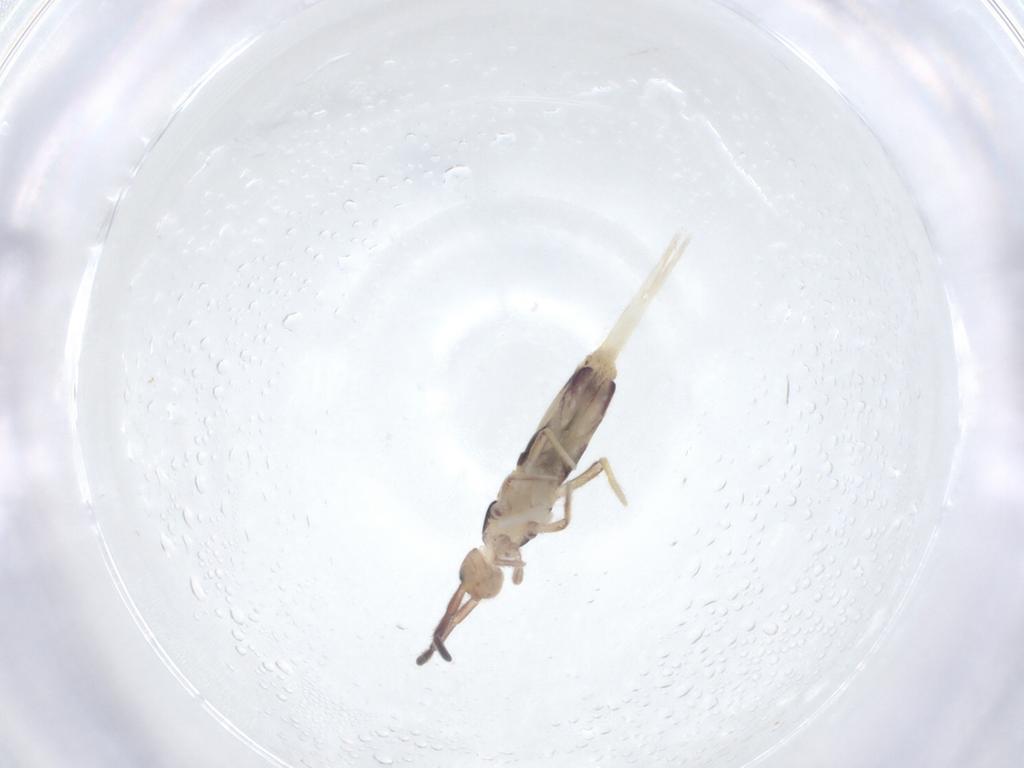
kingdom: Animalia
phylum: Arthropoda
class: Collembola
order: Entomobryomorpha
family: Entomobryidae
